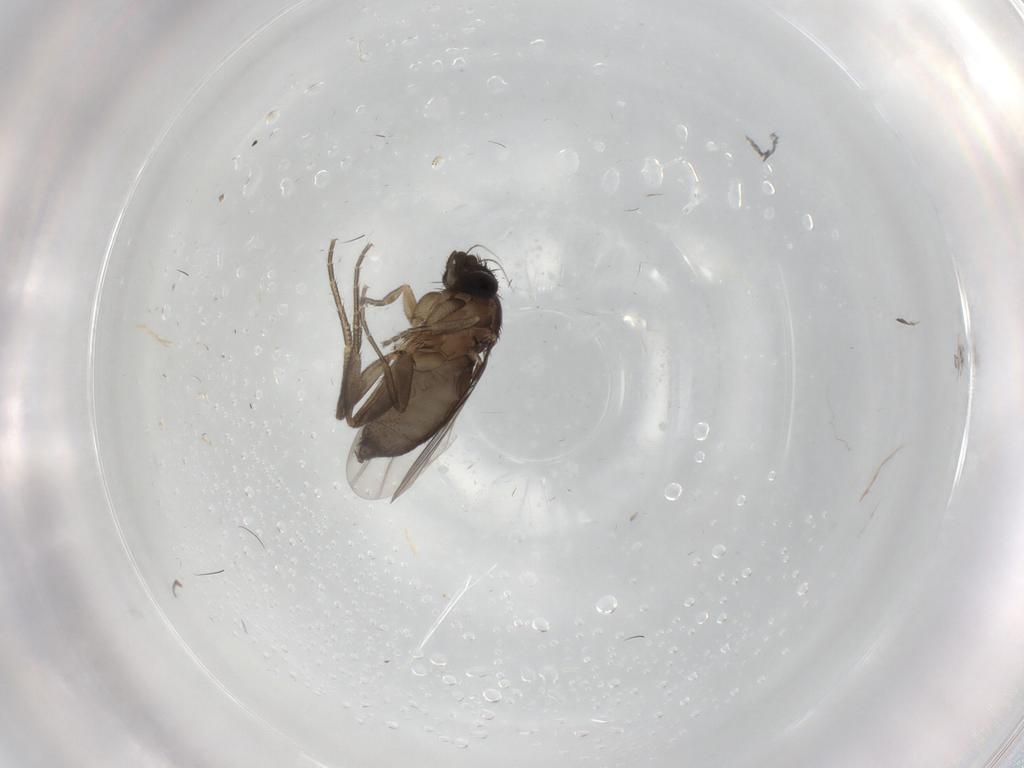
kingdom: Animalia
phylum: Arthropoda
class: Insecta
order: Diptera
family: Phoridae
